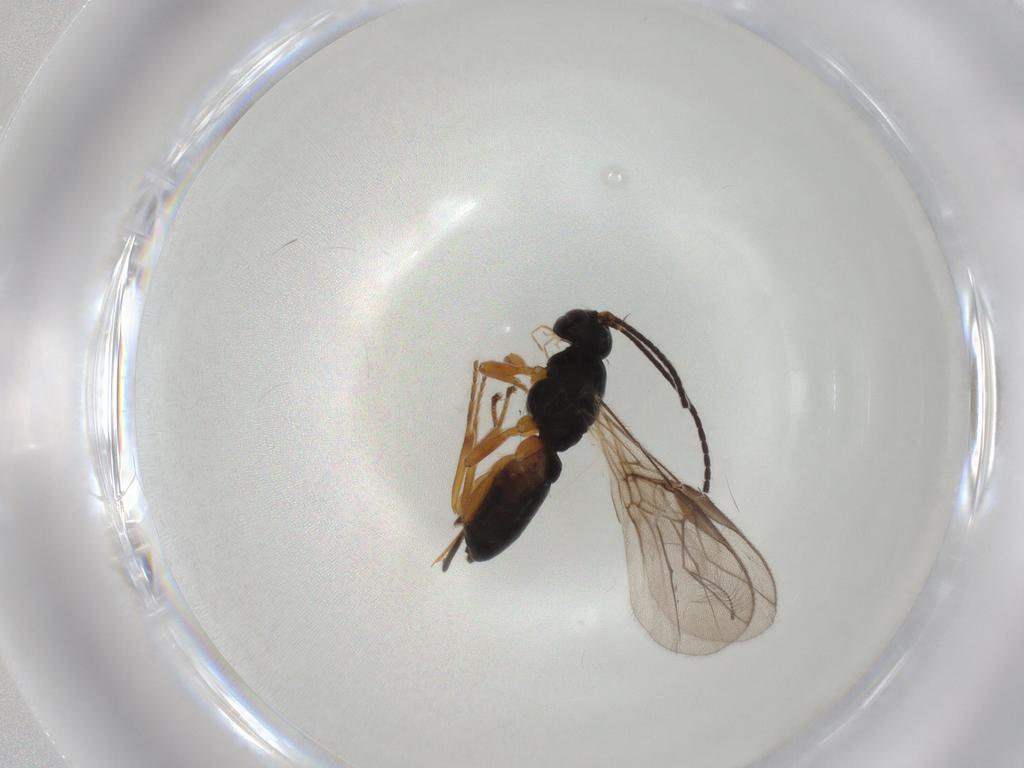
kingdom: Animalia
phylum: Arthropoda
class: Insecta
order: Hymenoptera
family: Braconidae
